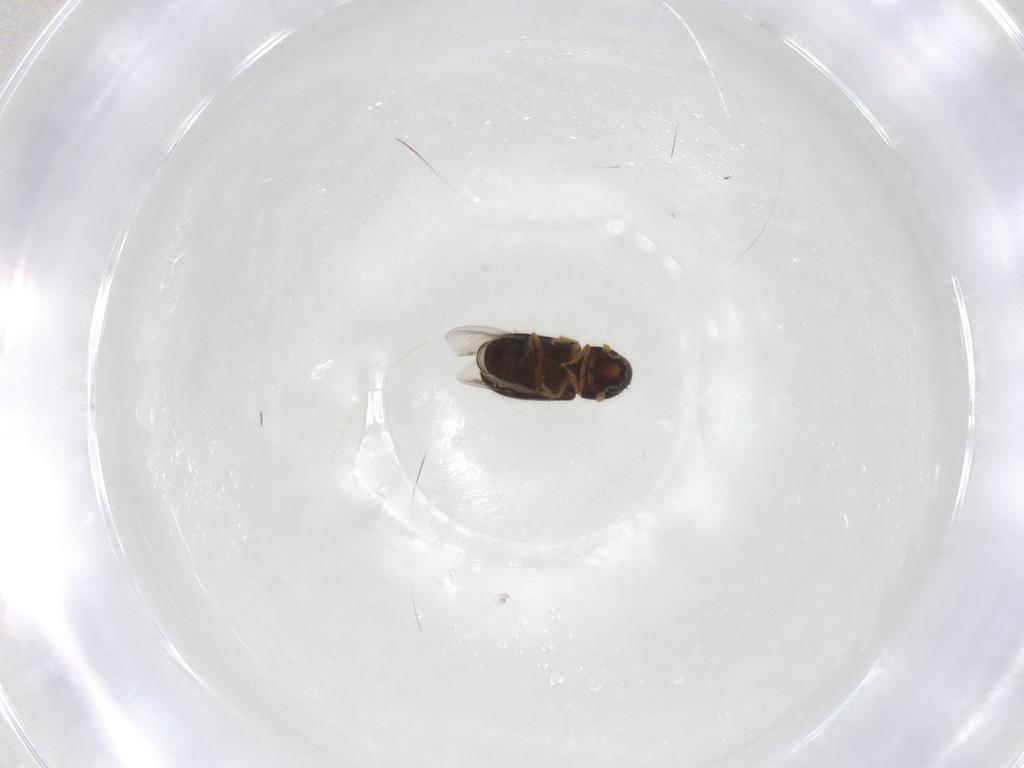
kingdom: Animalia
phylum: Arthropoda
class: Insecta
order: Coleoptera
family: Curculionidae
